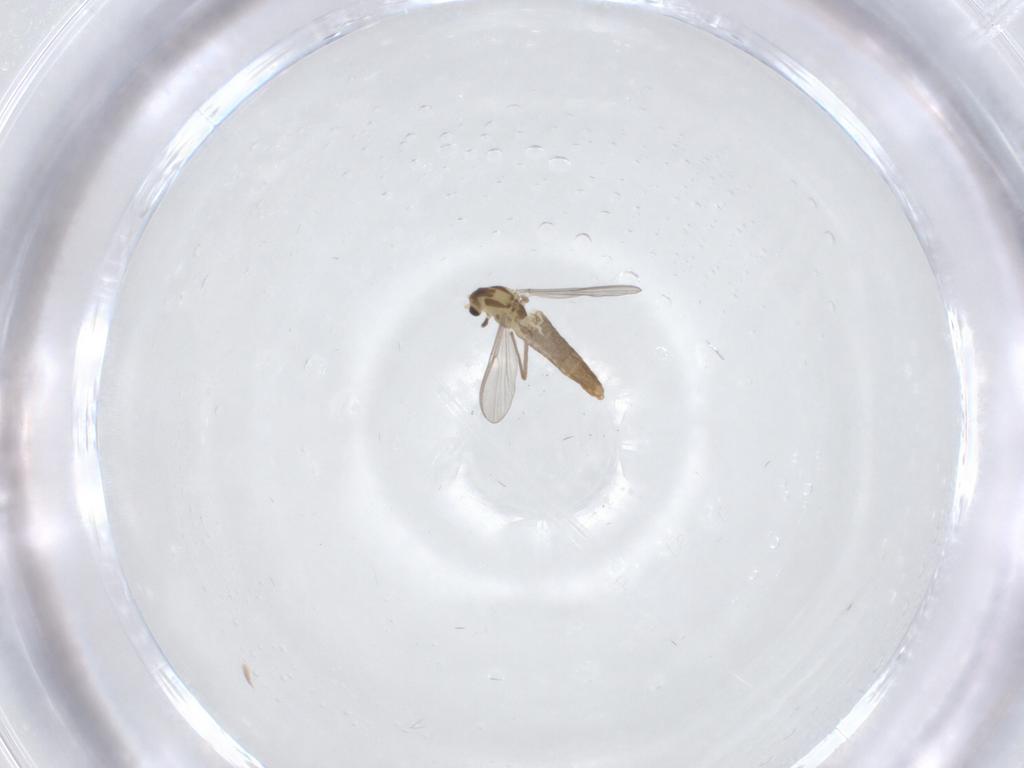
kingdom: Animalia
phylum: Arthropoda
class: Insecta
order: Diptera
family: Chironomidae
